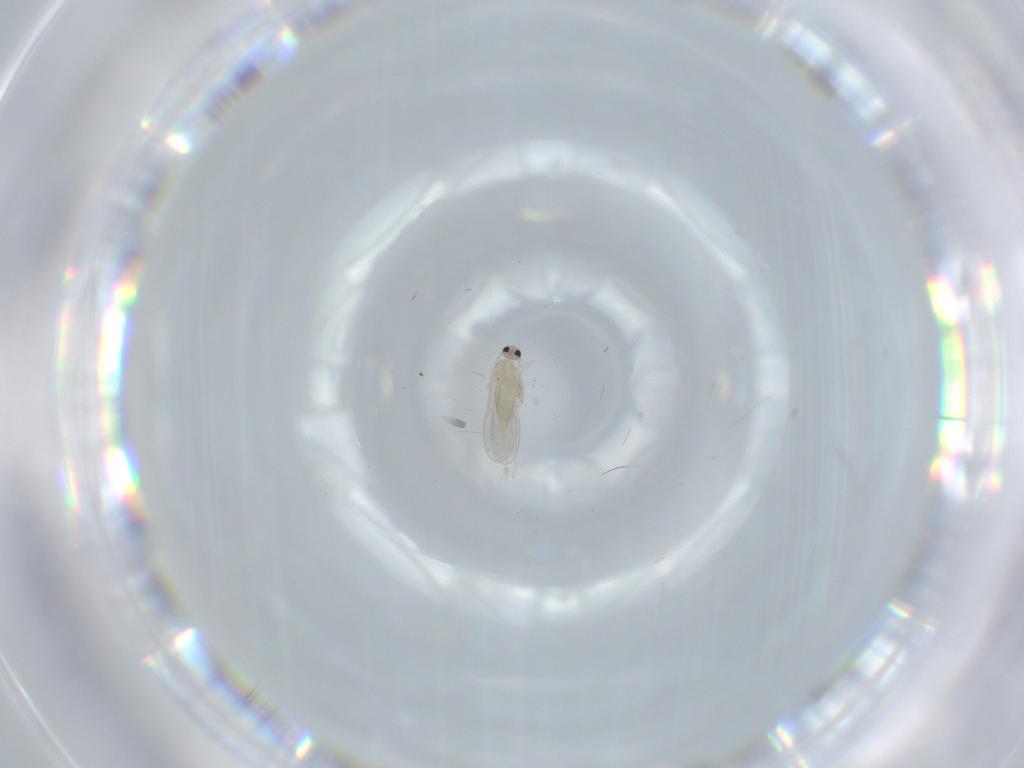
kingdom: Animalia
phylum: Arthropoda
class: Insecta
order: Diptera
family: Cecidomyiidae
